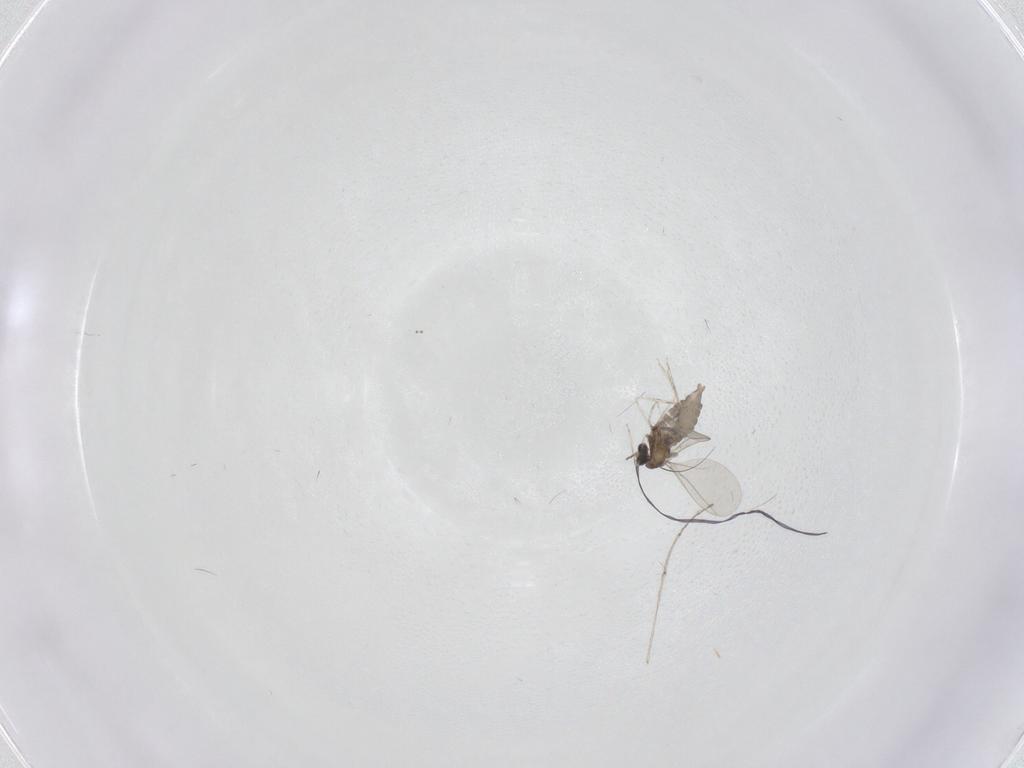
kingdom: Animalia
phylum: Arthropoda
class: Insecta
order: Diptera
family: Cecidomyiidae
